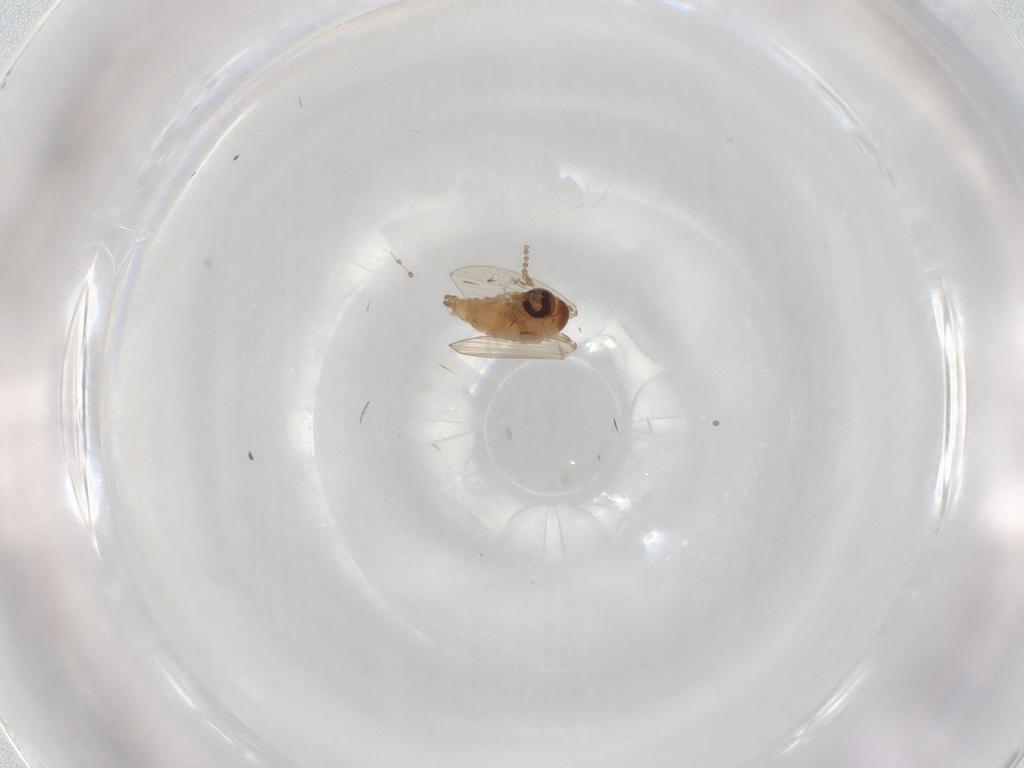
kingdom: Animalia
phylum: Arthropoda
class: Insecta
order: Diptera
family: Psychodidae
